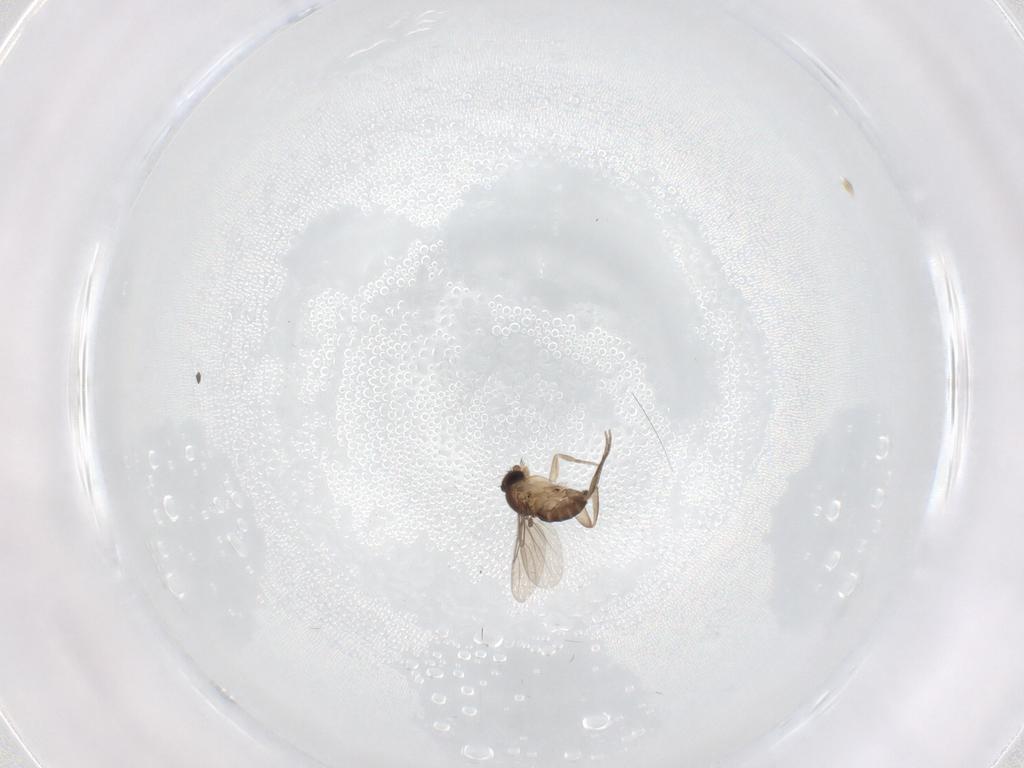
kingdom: Animalia
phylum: Arthropoda
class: Insecta
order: Diptera
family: Phoridae
